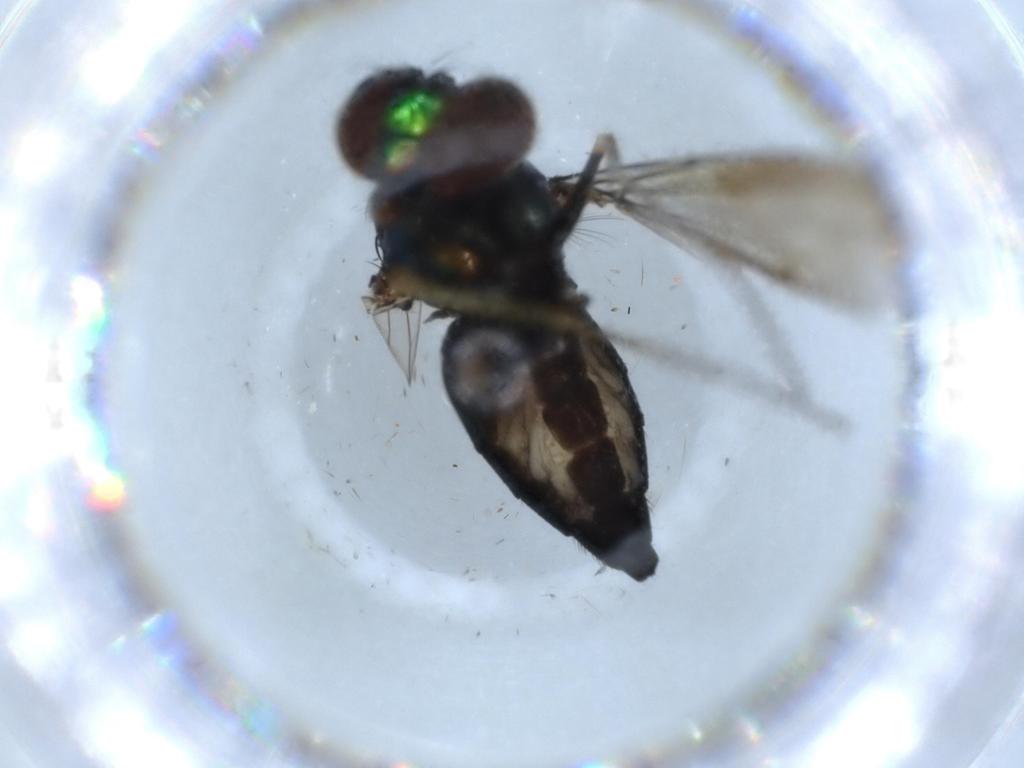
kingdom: Animalia
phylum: Arthropoda
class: Insecta
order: Diptera
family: Dolichopodidae
